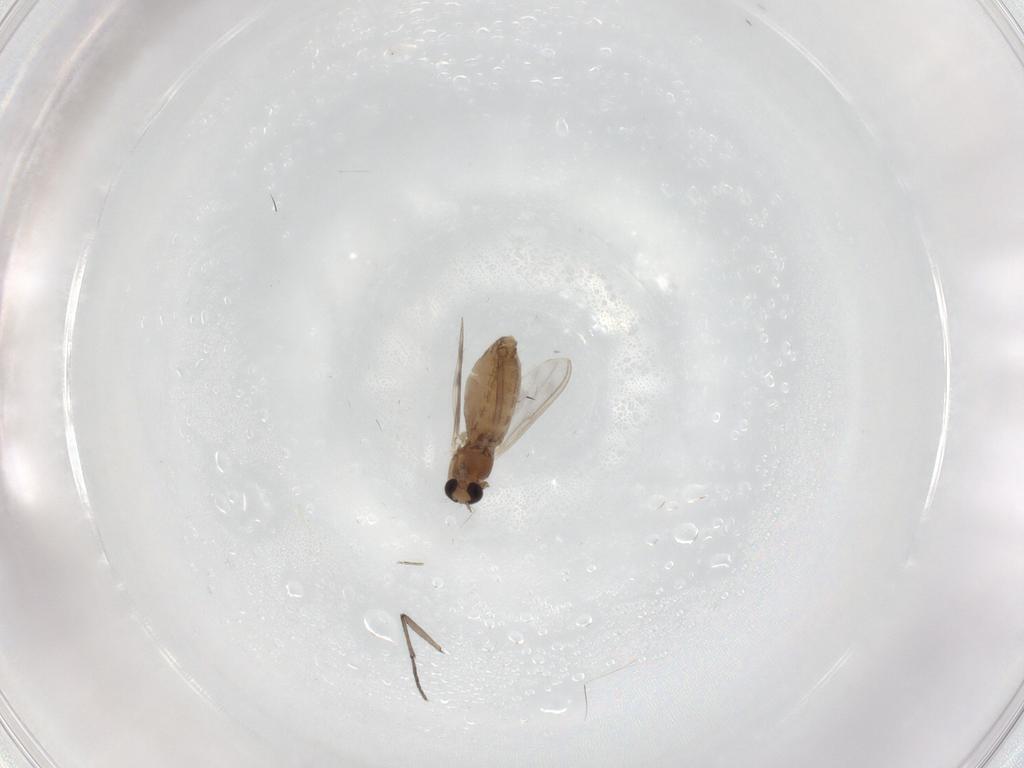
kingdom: Animalia
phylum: Arthropoda
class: Insecta
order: Diptera
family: Chironomidae
